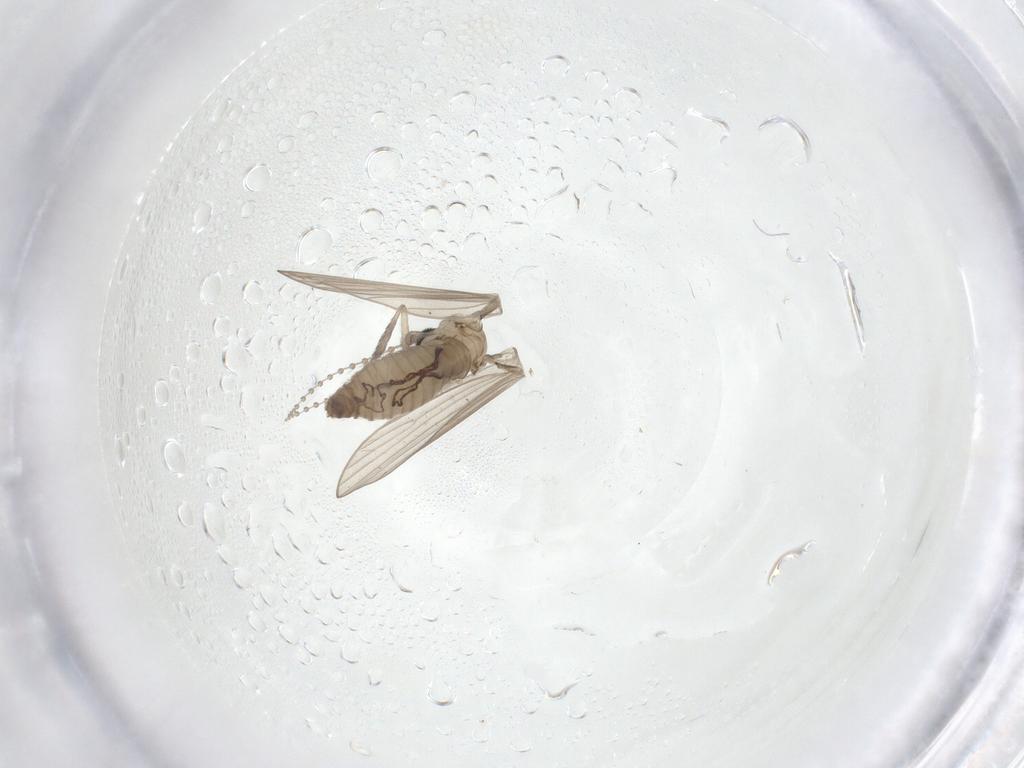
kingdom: Animalia
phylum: Arthropoda
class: Insecta
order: Diptera
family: Psychodidae
